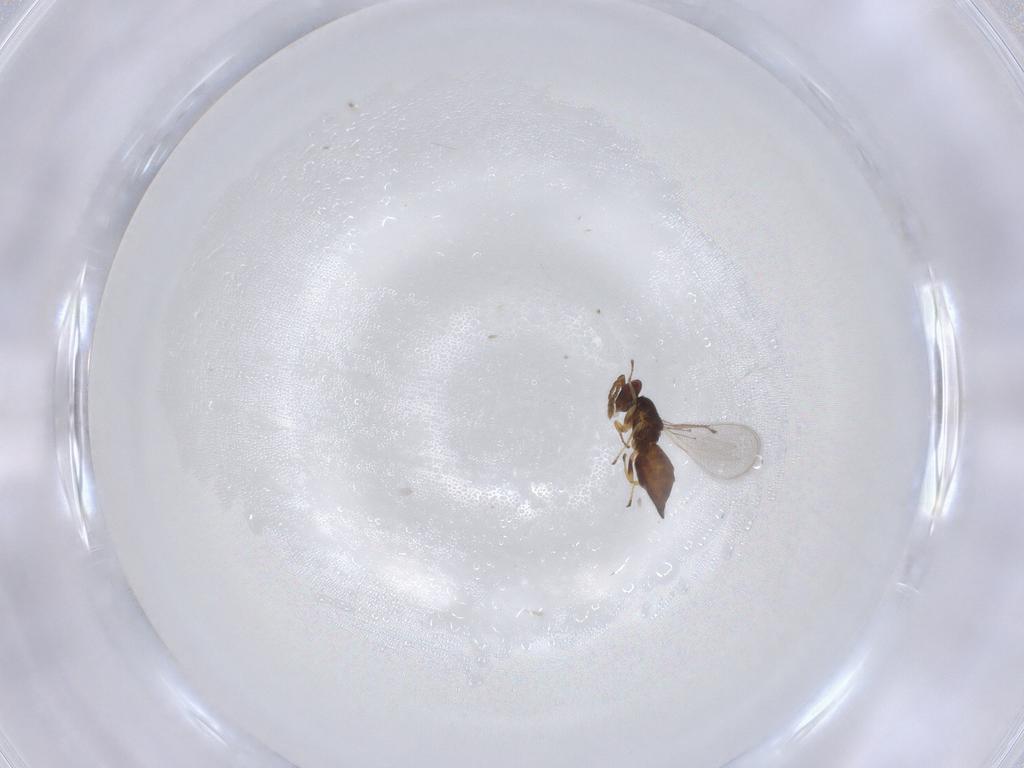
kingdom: Animalia
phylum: Arthropoda
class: Insecta
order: Hymenoptera
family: Eulophidae
